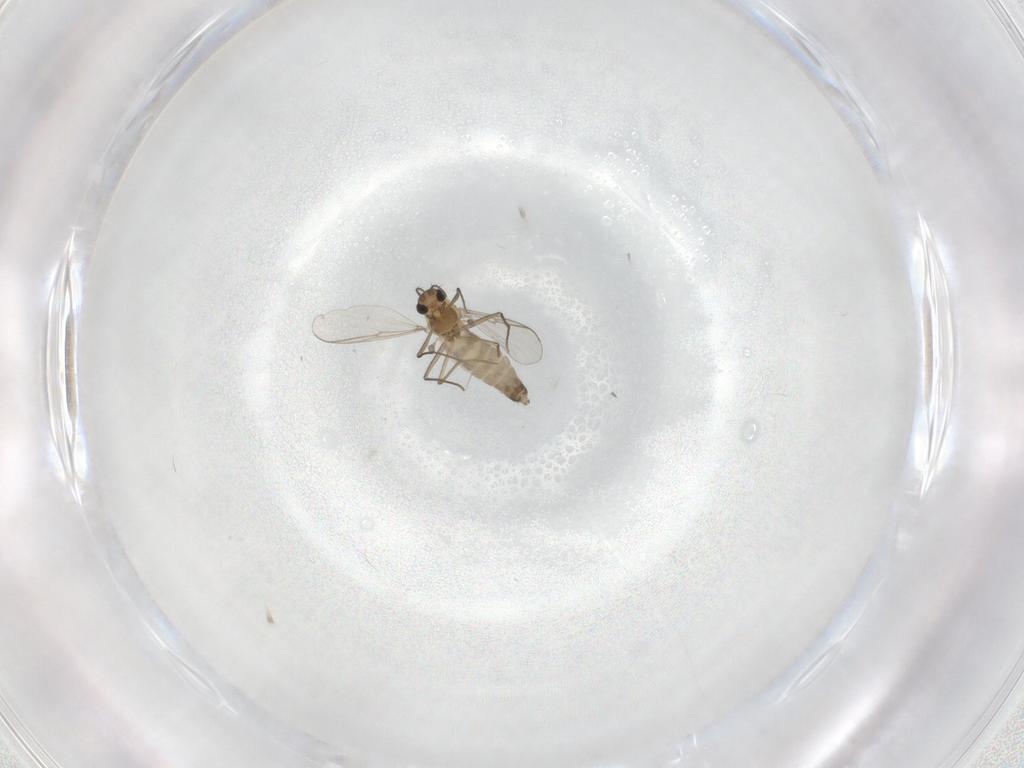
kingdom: Animalia
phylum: Arthropoda
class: Insecta
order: Diptera
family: Chironomidae
